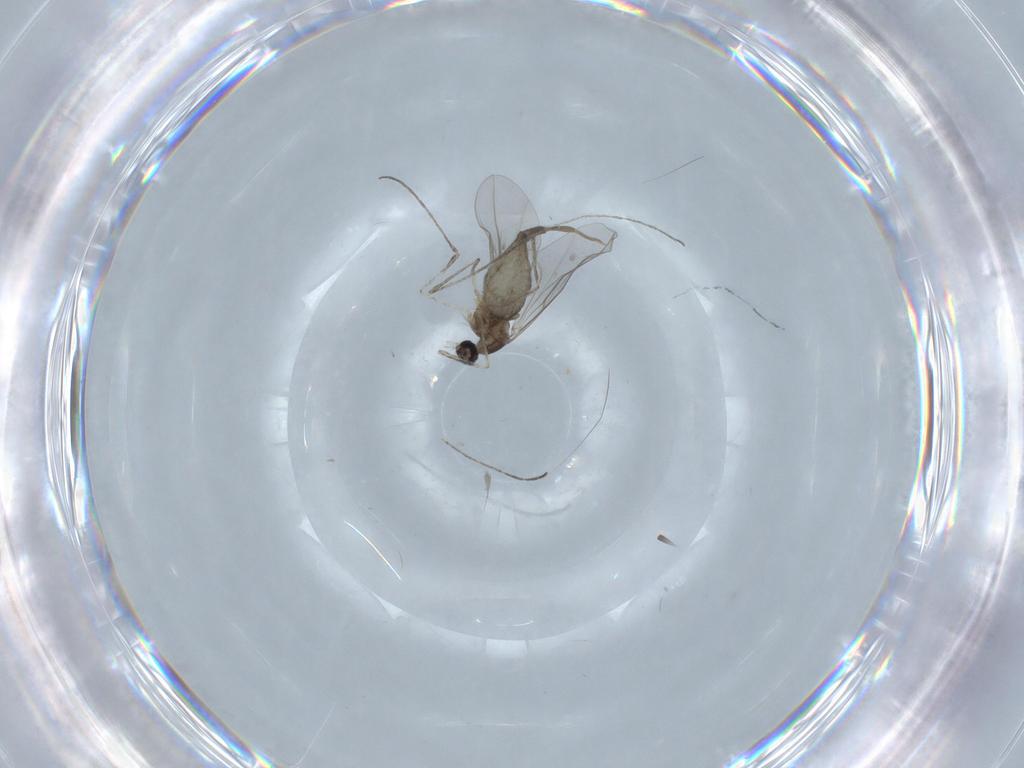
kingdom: Animalia
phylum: Arthropoda
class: Insecta
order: Diptera
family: Cecidomyiidae
